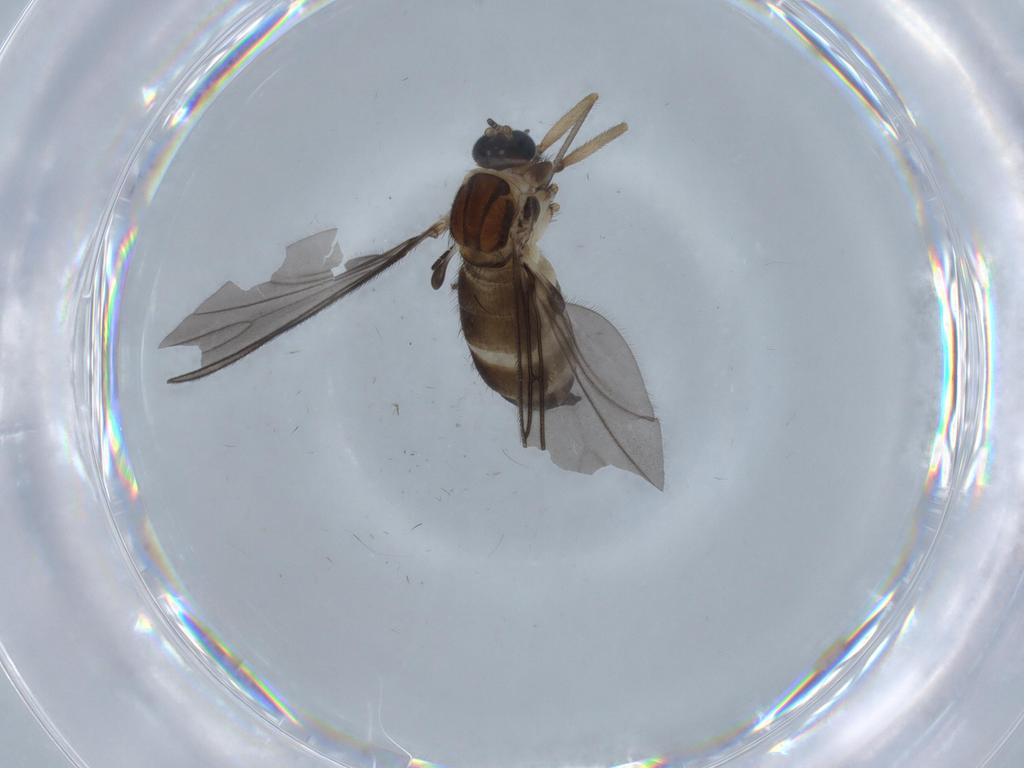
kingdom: Animalia
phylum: Arthropoda
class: Insecta
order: Diptera
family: Sciaridae
